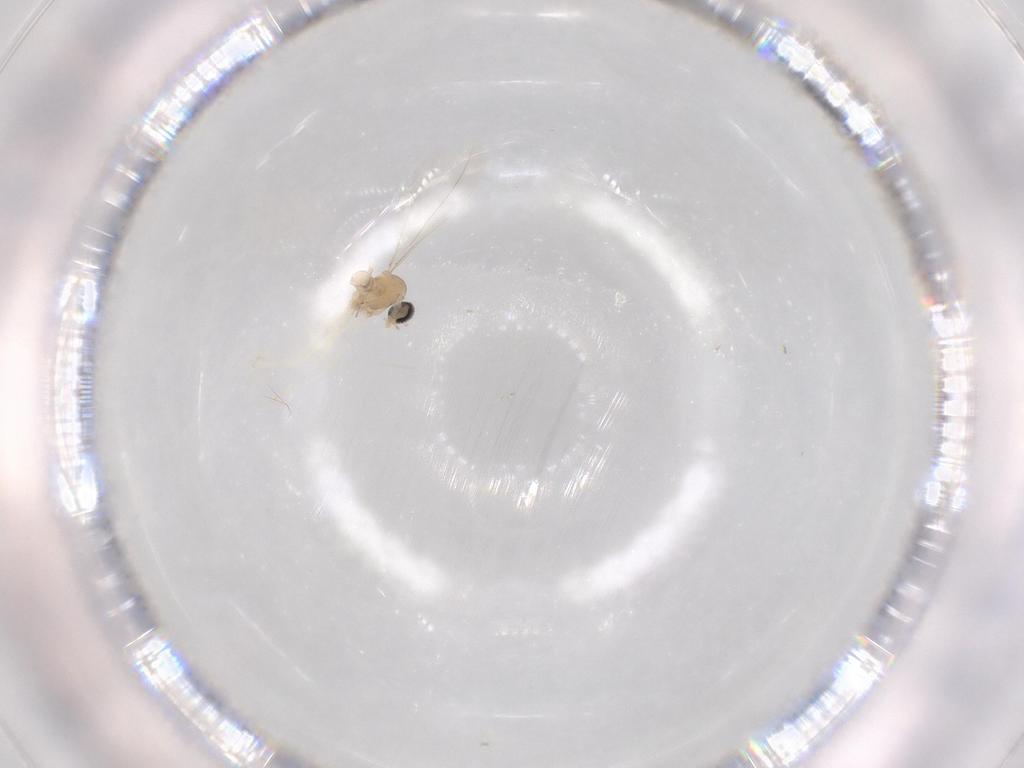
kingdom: Animalia
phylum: Arthropoda
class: Insecta
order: Diptera
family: Cecidomyiidae
